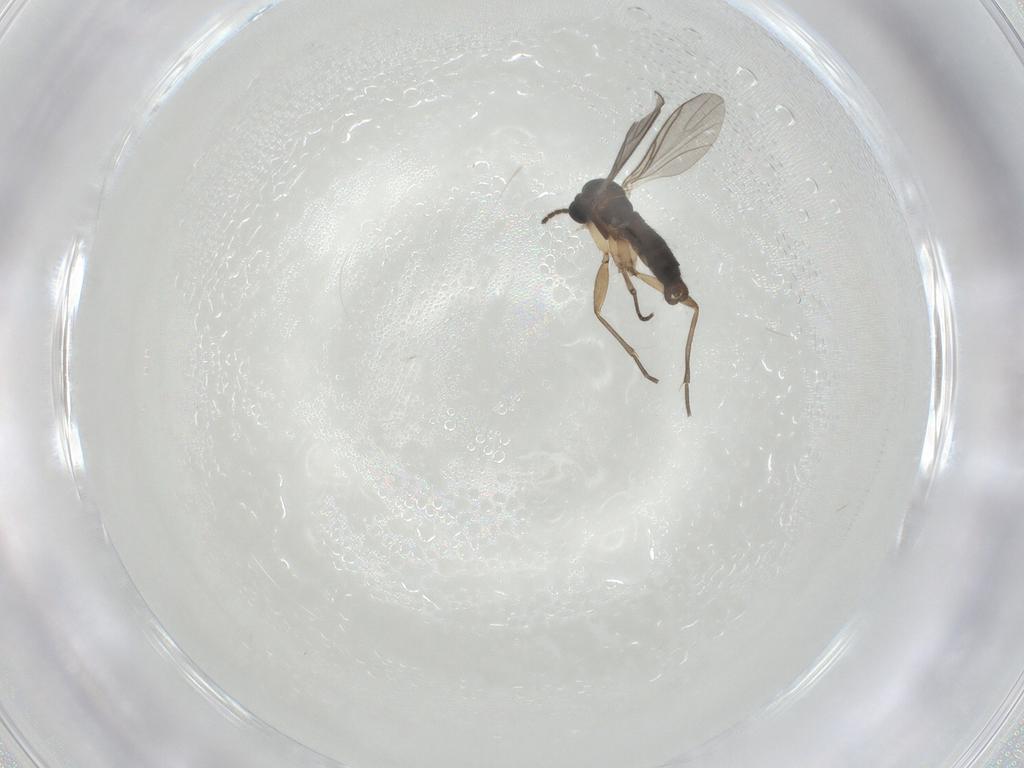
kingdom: Animalia
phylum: Arthropoda
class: Insecta
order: Diptera
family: Sciaridae
